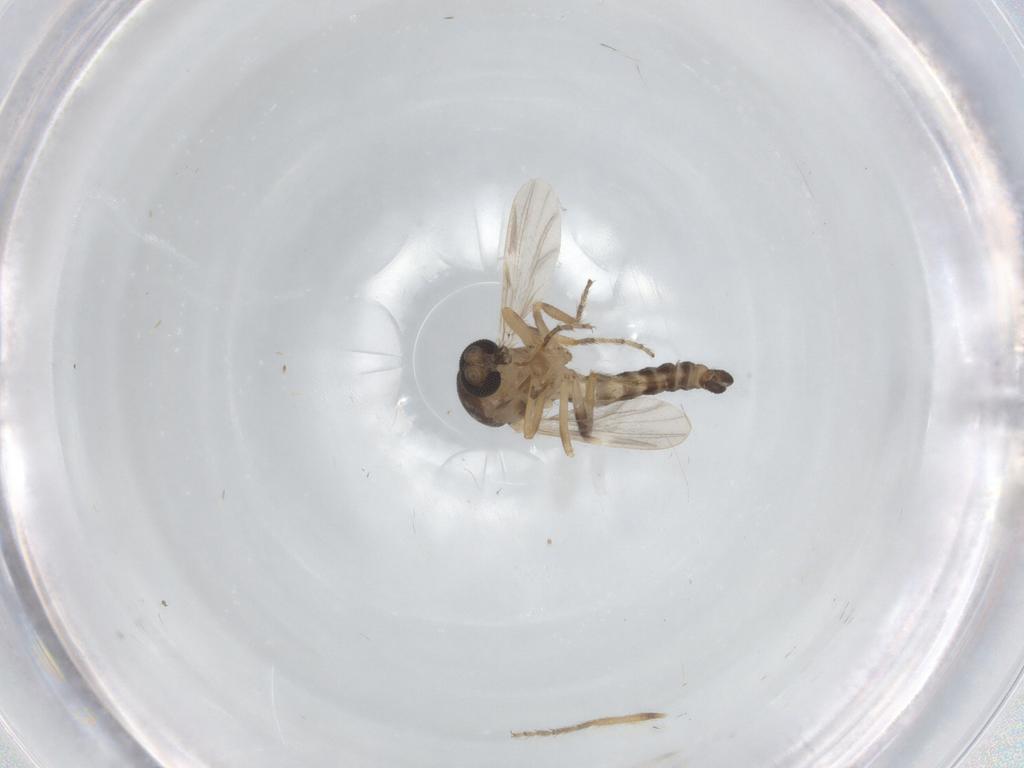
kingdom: Animalia
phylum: Arthropoda
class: Insecta
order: Diptera
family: Ceratopogonidae
